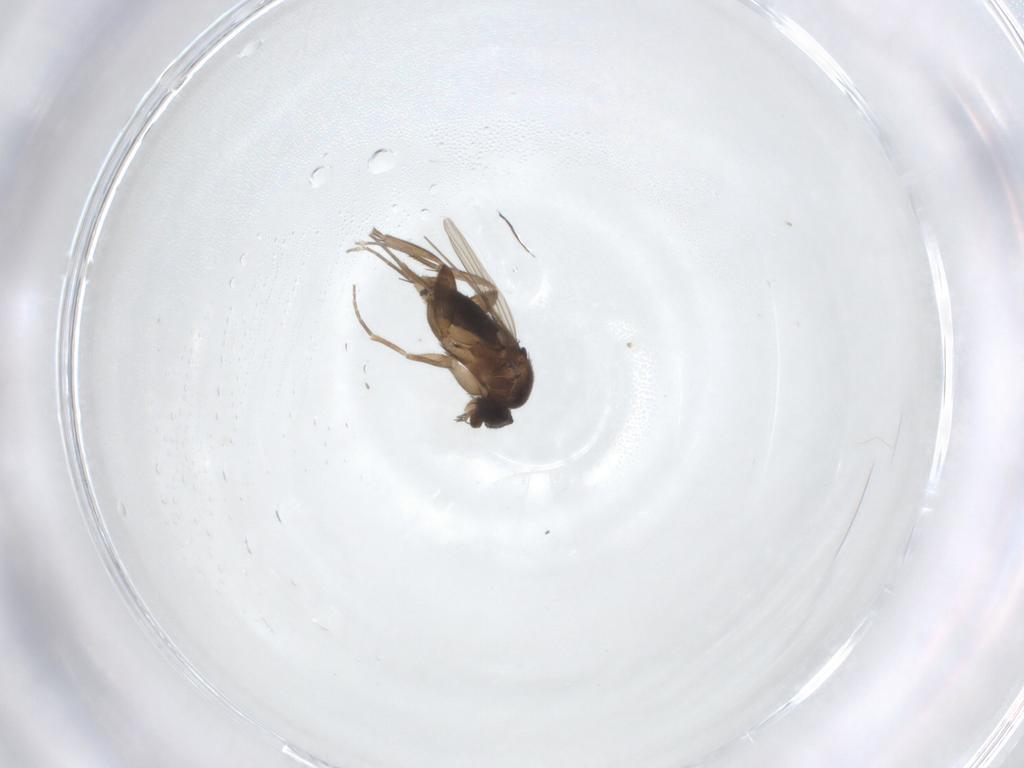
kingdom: Animalia
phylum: Arthropoda
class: Insecta
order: Diptera
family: Phoridae
